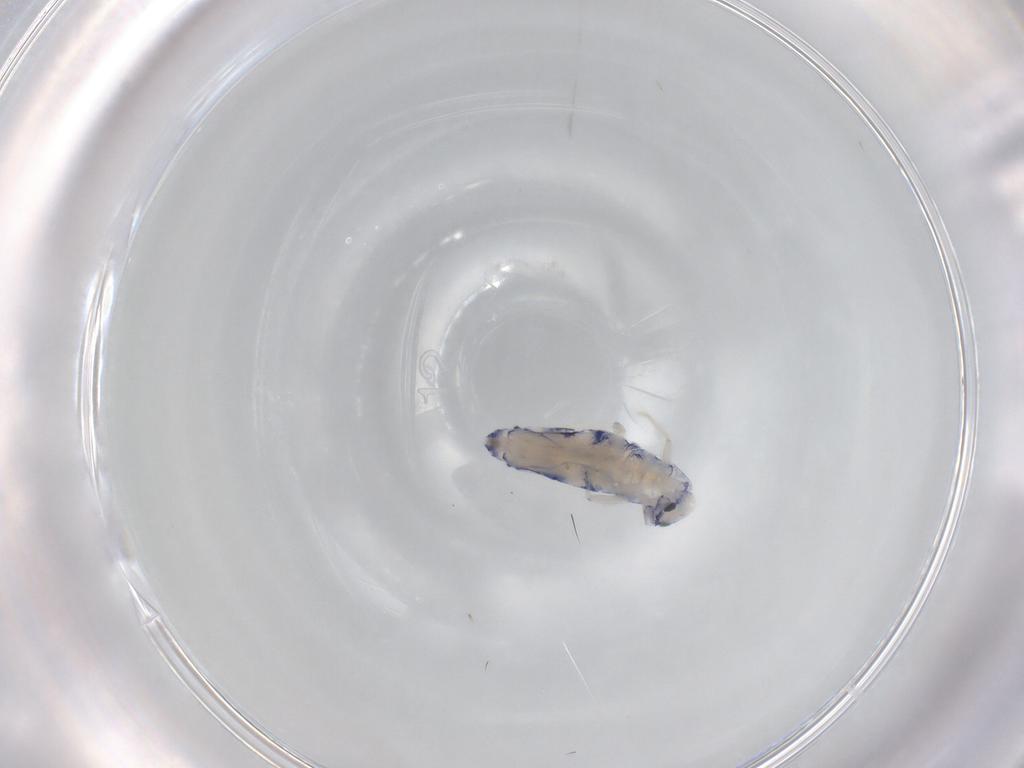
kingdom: Animalia
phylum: Arthropoda
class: Collembola
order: Entomobryomorpha
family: Entomobryidae
